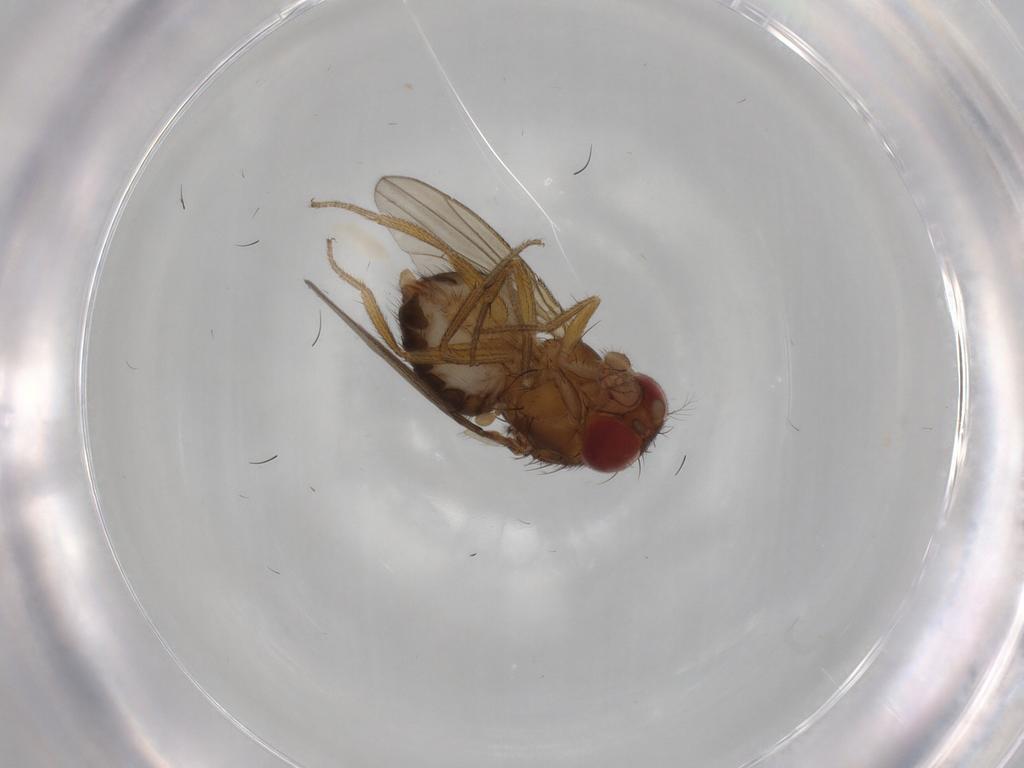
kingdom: Animalia
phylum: Arthropoda
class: Insecta
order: Diptera
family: Drosophilidae
